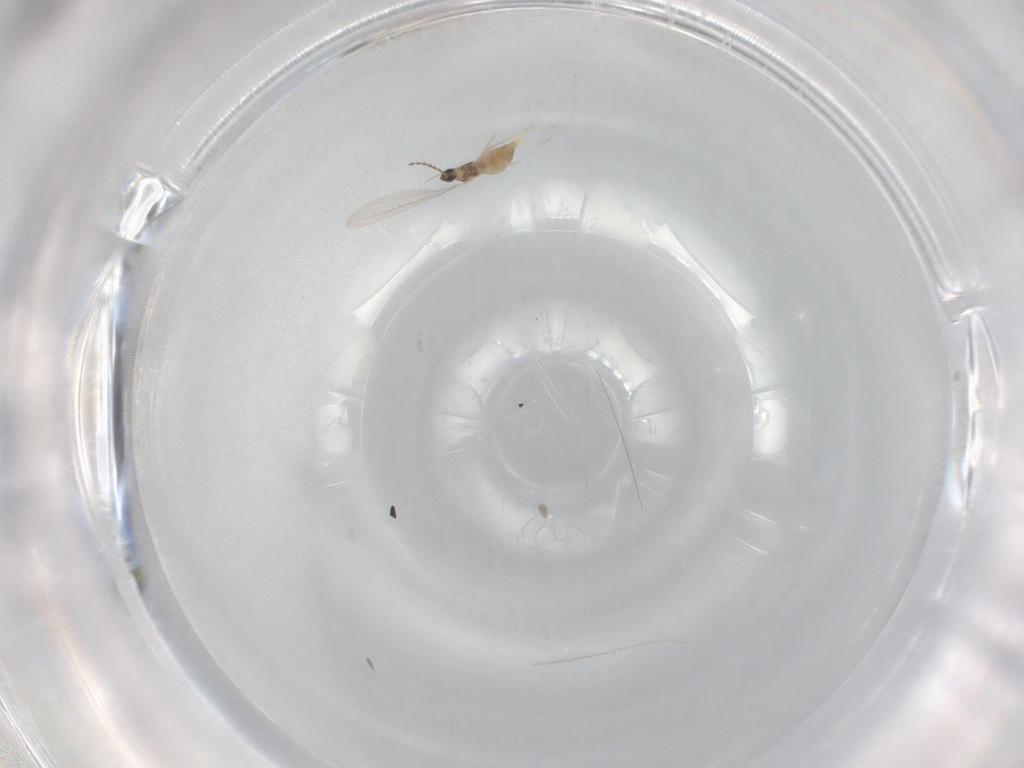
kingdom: Animalia
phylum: Arthropoda
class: Insecta
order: Diptera
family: Cecidomyiidae
